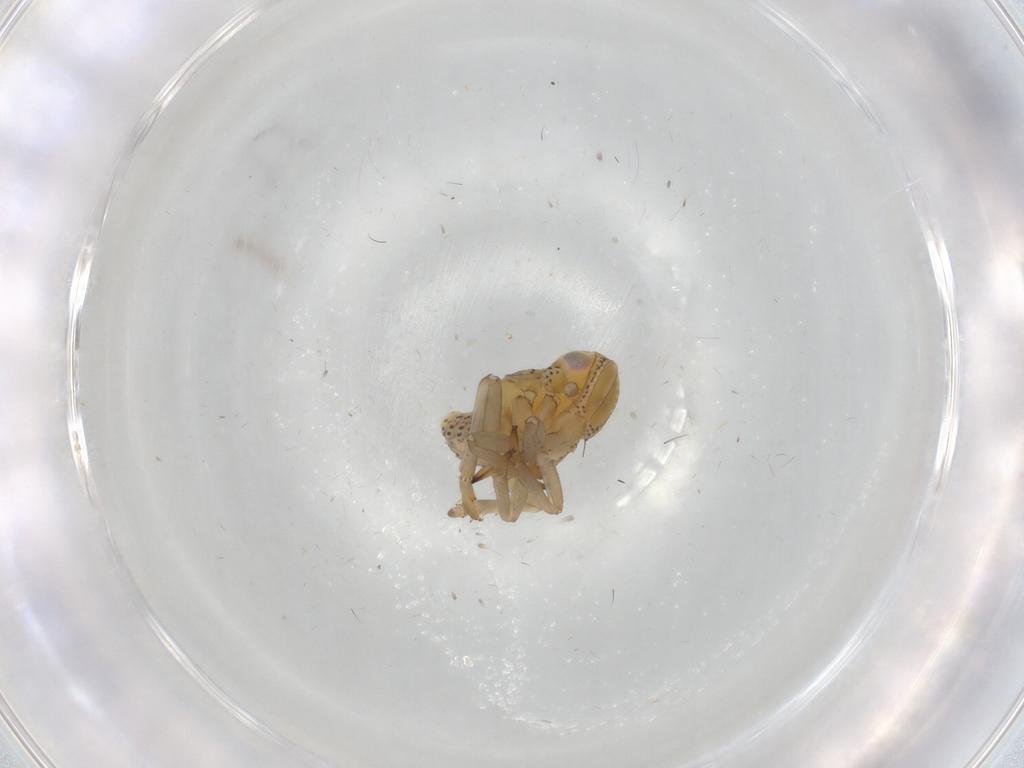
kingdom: Animalia
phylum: Arthropoda
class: Insecta
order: Hemiptera
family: Tropiduchidae
